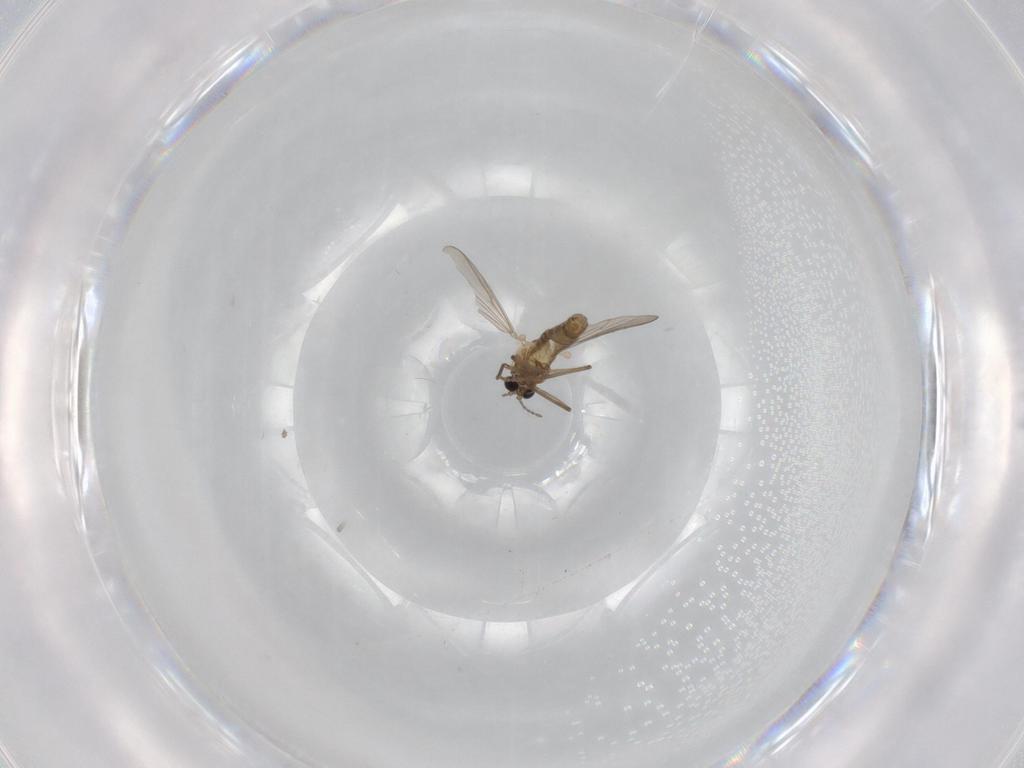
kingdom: Animalia
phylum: Arthropoda
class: Insecta
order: Diptera
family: Chironomidae
